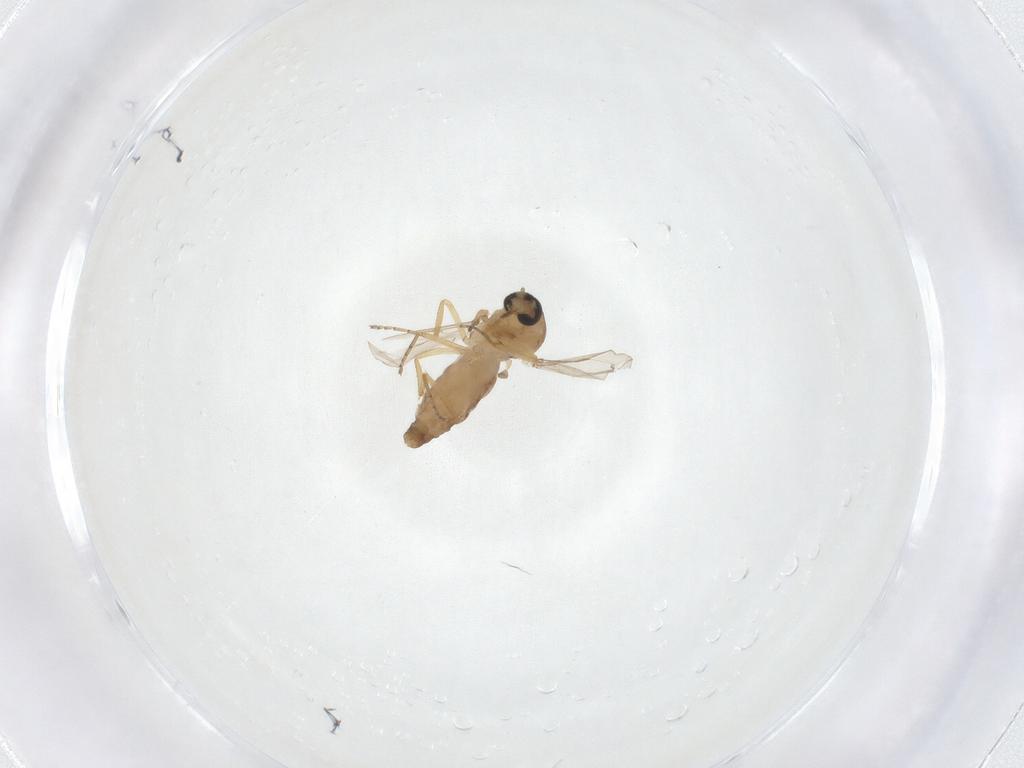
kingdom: Animalia
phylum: Arthropoda
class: Insecta
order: Diptera
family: Ceratopogonidae
